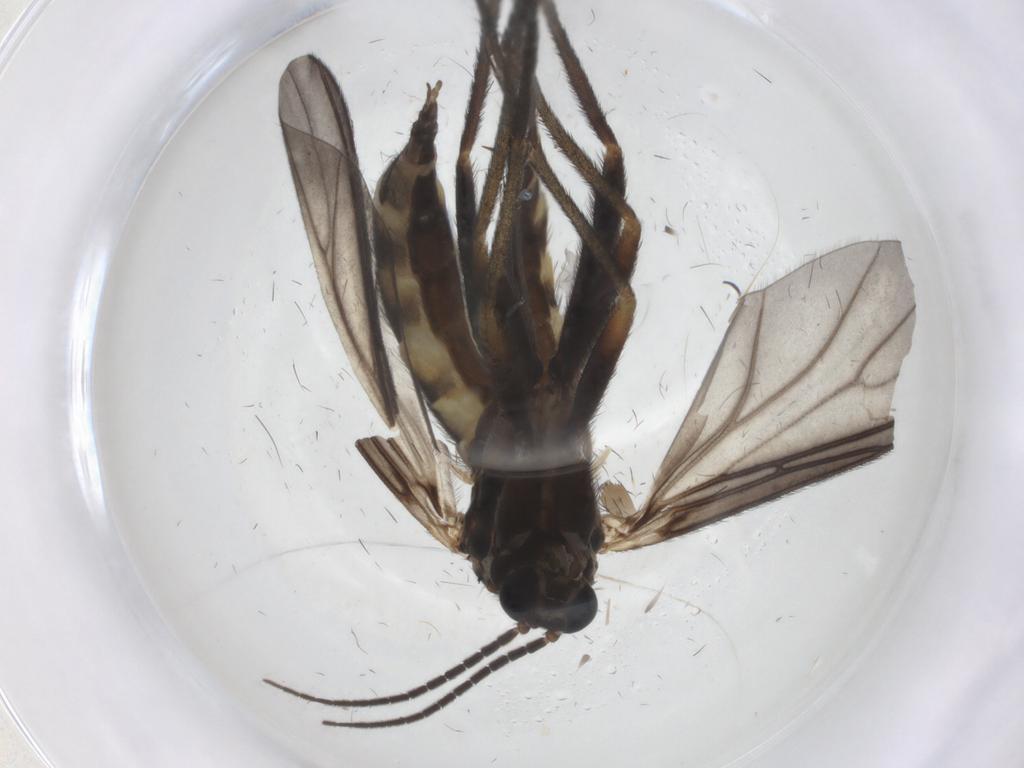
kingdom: Animalia
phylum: Arthropoda
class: Insecta
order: Diptera
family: Sciaridae
